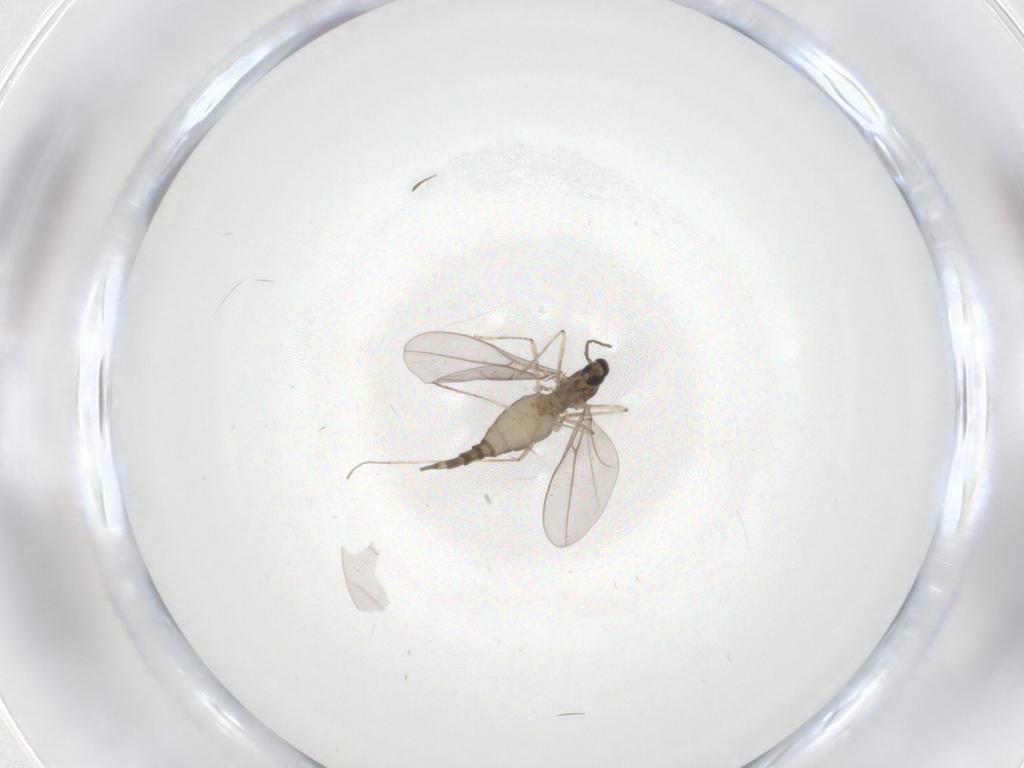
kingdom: Animalia
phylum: Arthropoda
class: Insecta
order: Diptera
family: Cecidomyiidae
